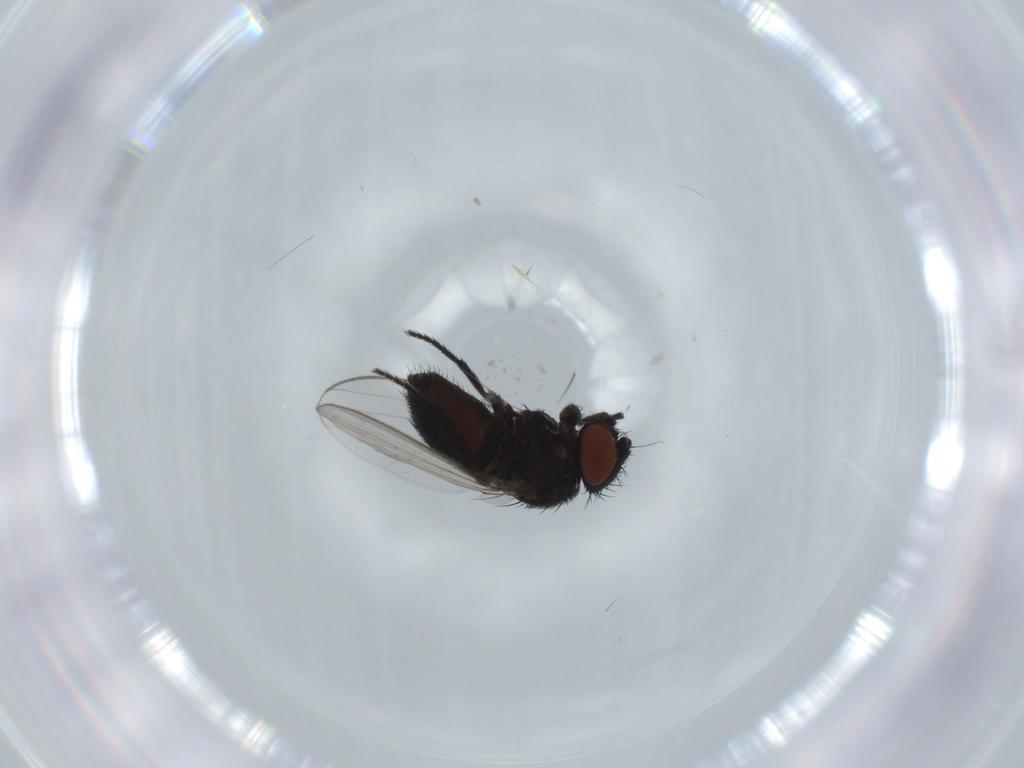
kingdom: Animalia
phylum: Arthropoda
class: Insecta
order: Diptera
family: Milichiidae
